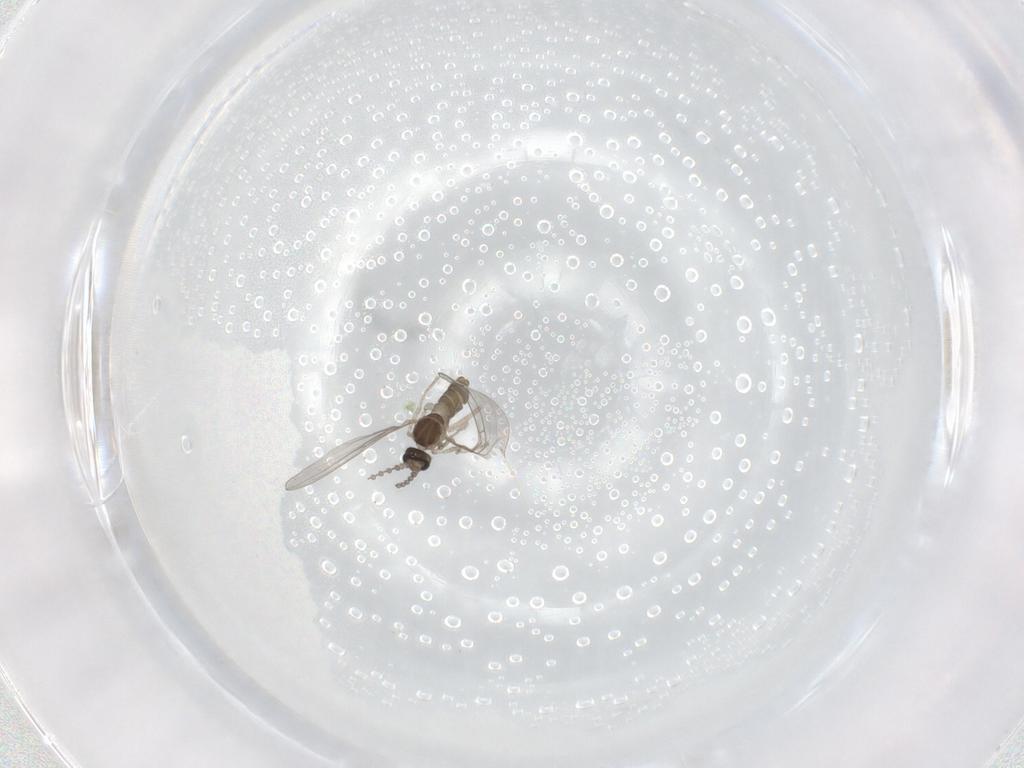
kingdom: Animalia
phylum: Arthropoda
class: Insecta
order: Diptera
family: Cecidomyiidae
